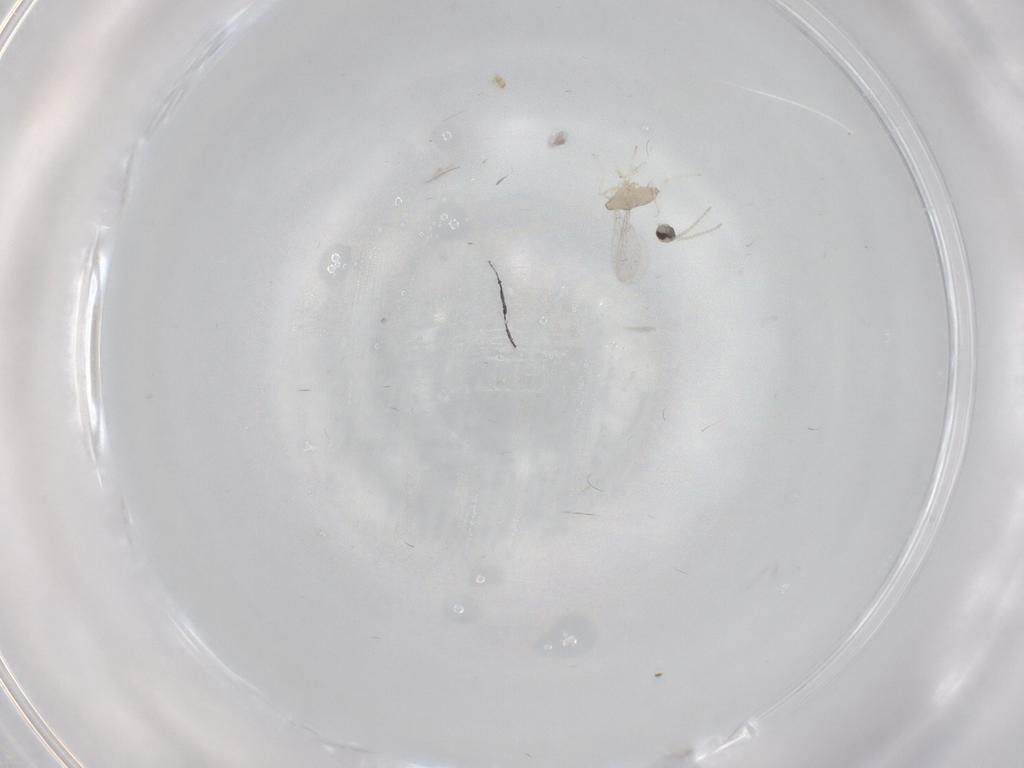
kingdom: Animalia
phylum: Arthropoda
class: Insecta
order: Diptera
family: Cecidomyiidae
